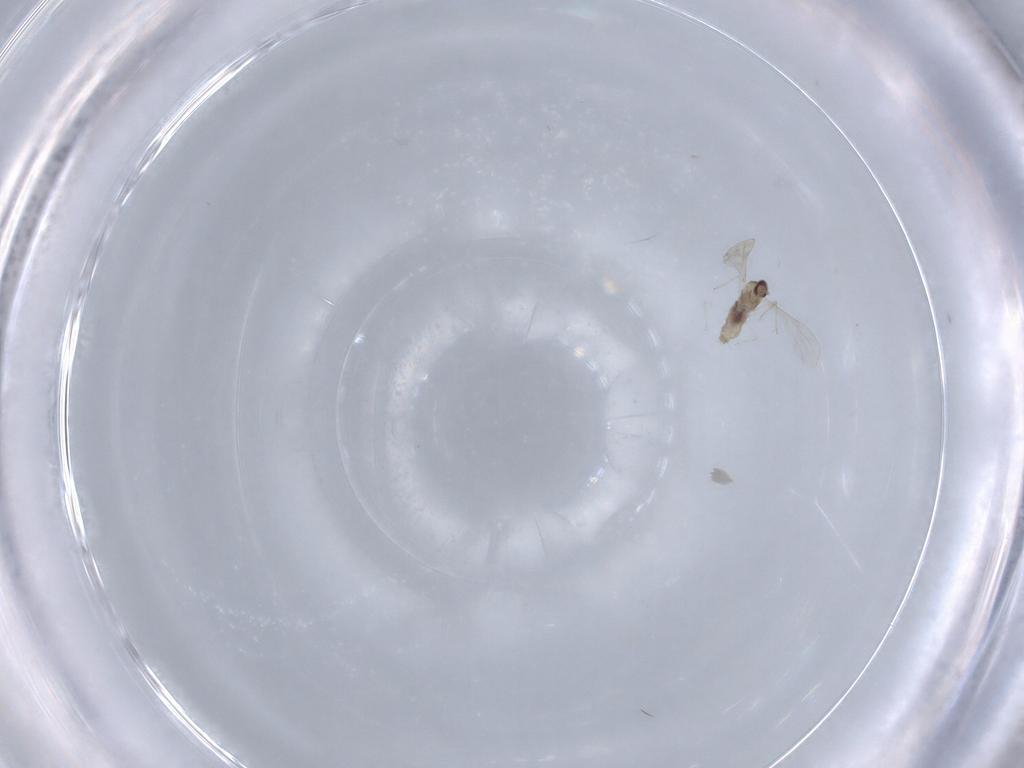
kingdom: Animalia
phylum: Arthropoda
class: Insecta
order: Diptera
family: Cecidomyiidae
